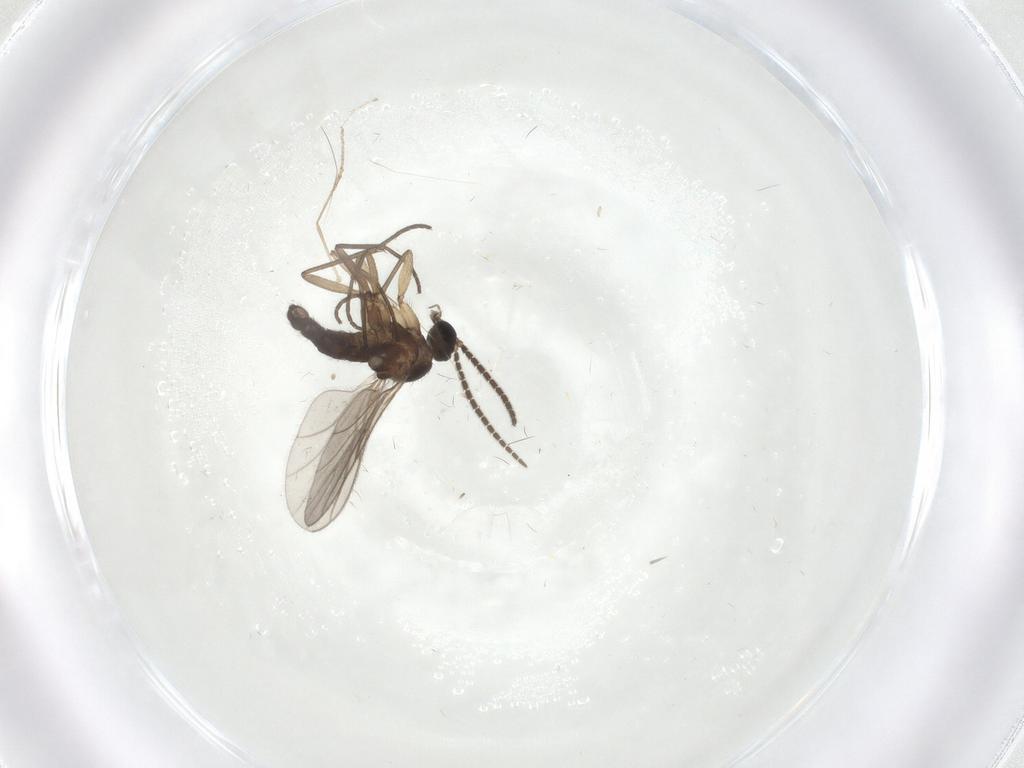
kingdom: Animalia
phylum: Arthropoda
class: Insecta
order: Diptera
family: Sciaridae
